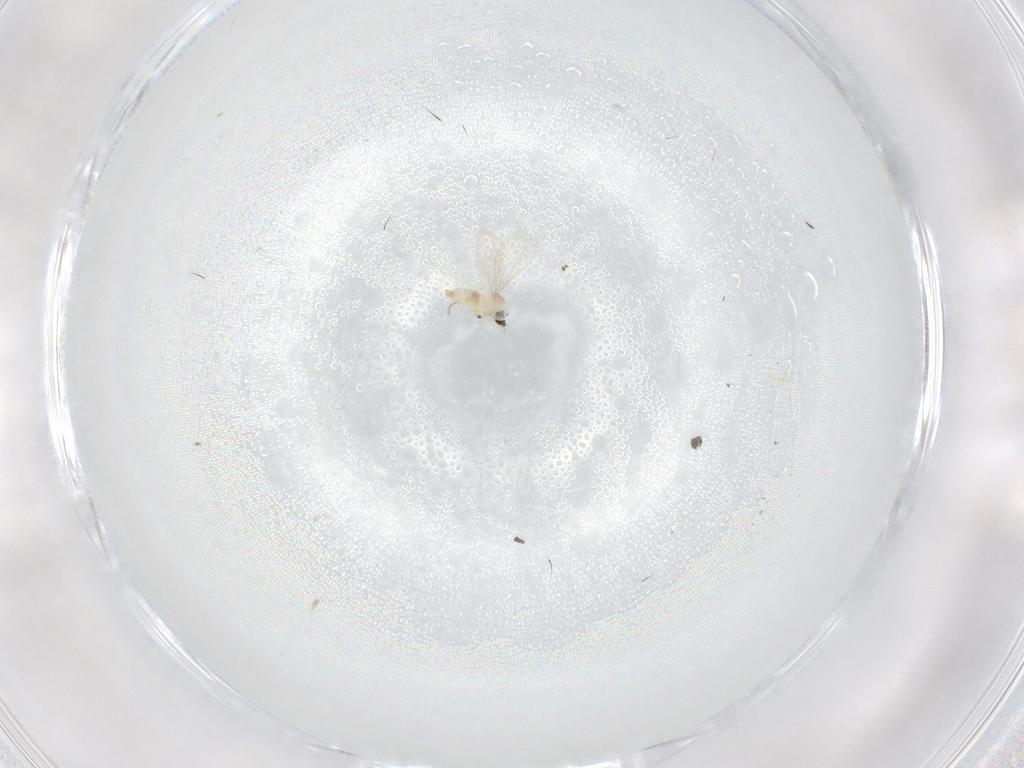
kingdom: Animalia
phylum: Arthropoda
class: Insecta
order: Diptera
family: Cecidomyiidae
